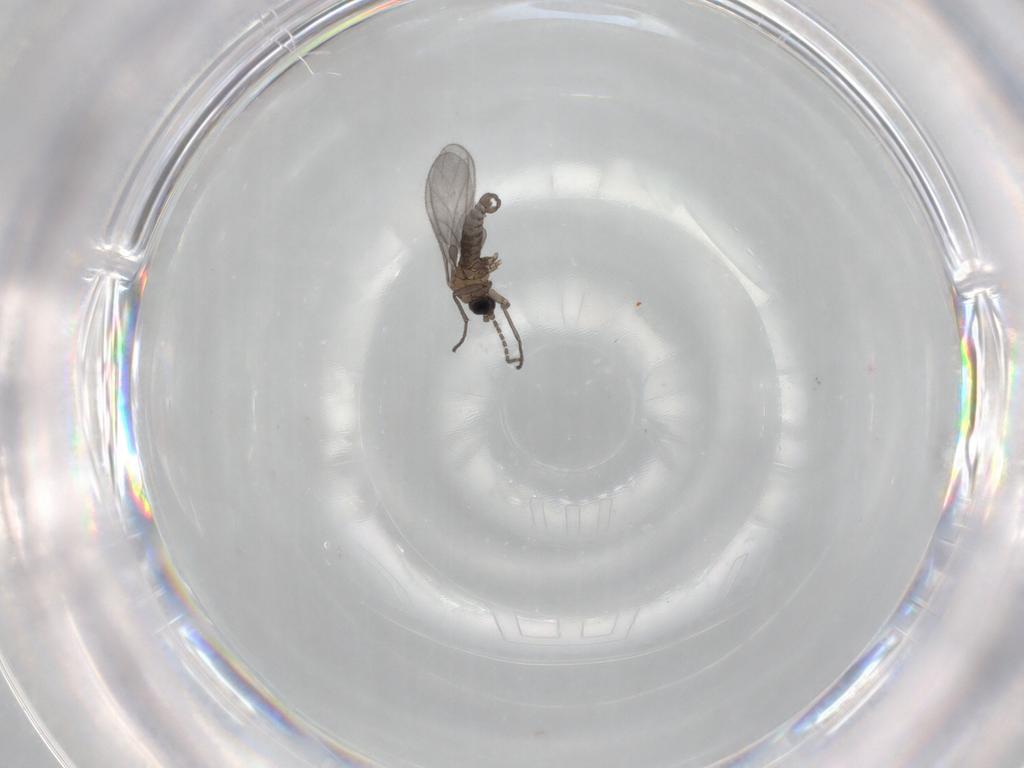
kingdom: Animalia
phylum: Arthropoda
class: Insecta
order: Diptera
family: Sciaridae
